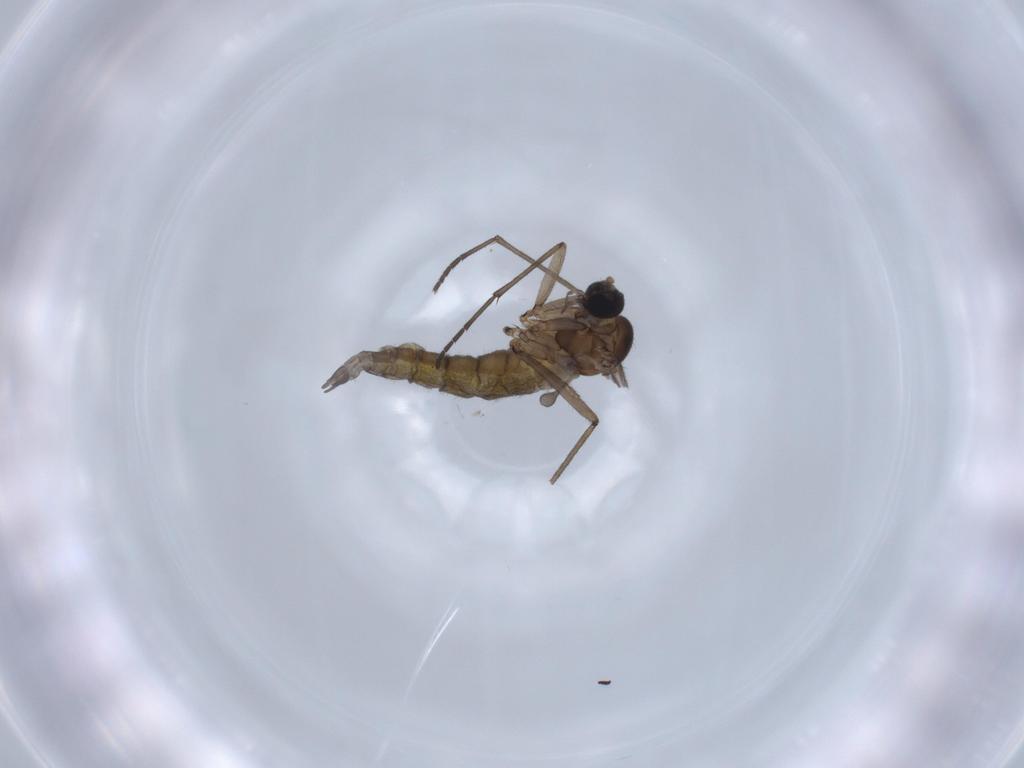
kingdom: Animalia
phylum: Arthropoda
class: Insecta
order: Diptera
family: Sciaridae
